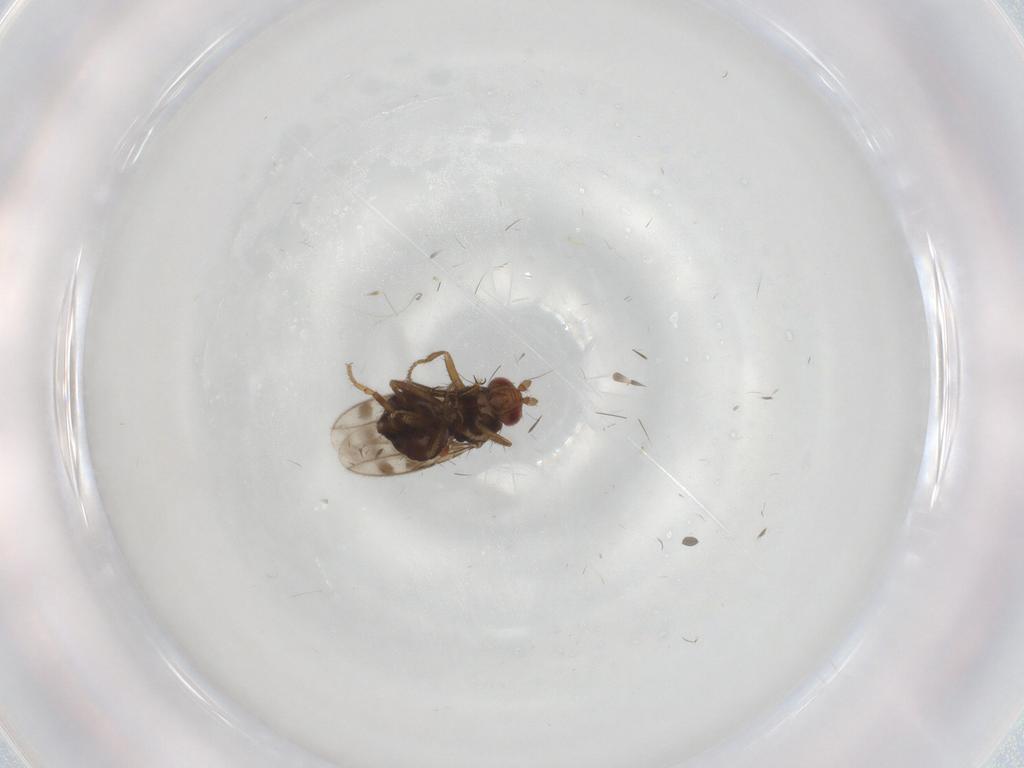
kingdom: Animalia
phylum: Arthropoda
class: Insecta
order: Diptera
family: Sphaeroceridae
